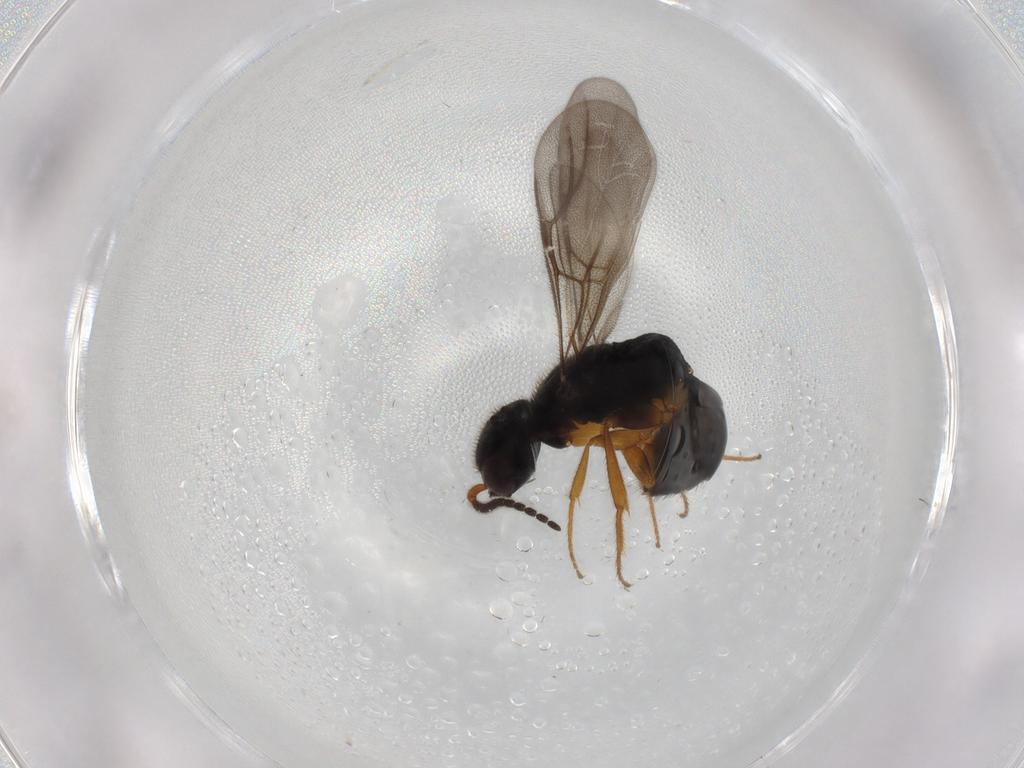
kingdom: Animalia
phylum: Arthropoda
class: Insecta
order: Hymenoptera
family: Bethylidae
